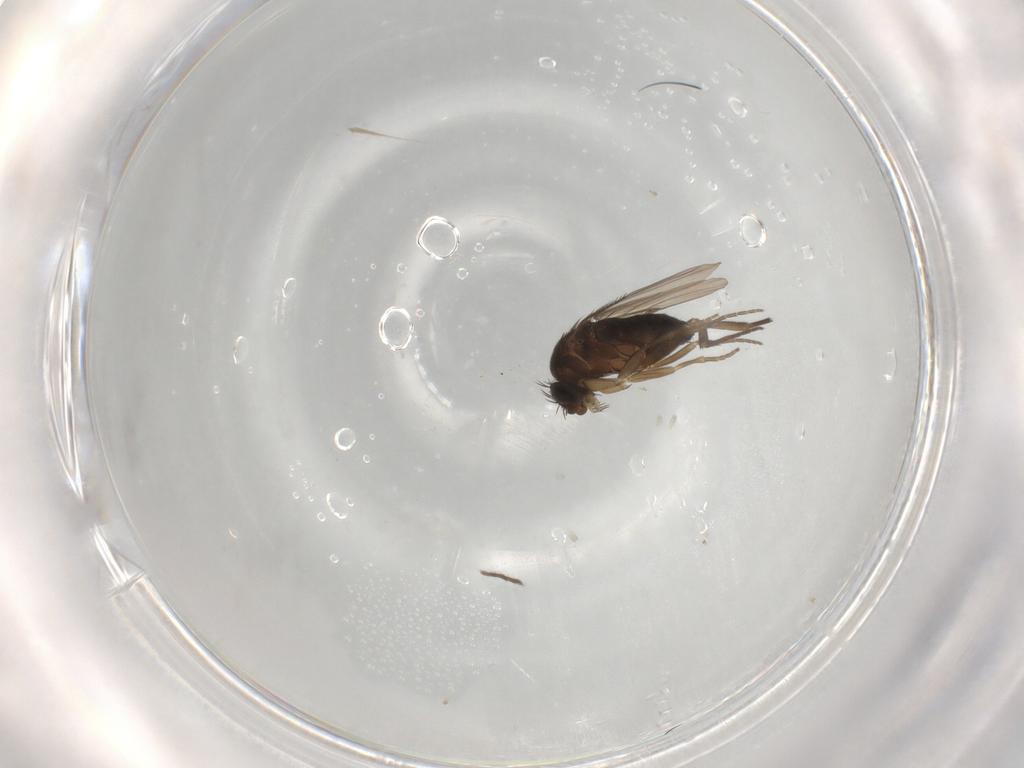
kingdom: Animalia
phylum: Arthropoda
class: Insecta
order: Diptera
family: Phoridae
